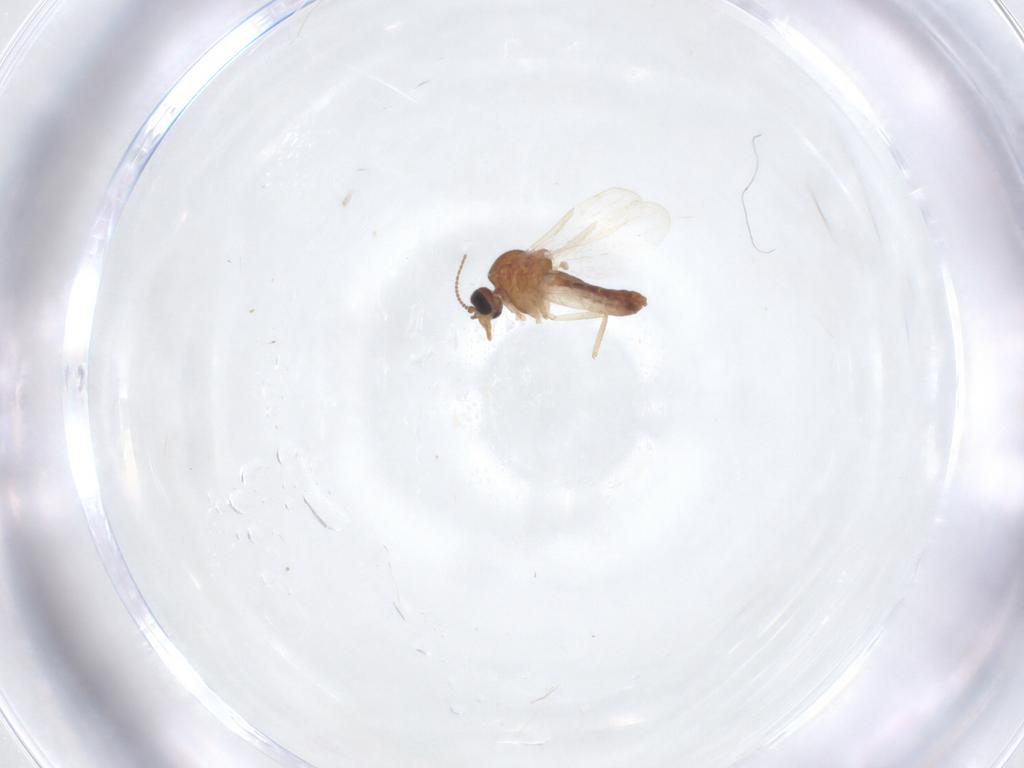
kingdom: Animalia
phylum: Arthropoda
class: Insecta
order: Diptera
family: Ceratopogonidae
